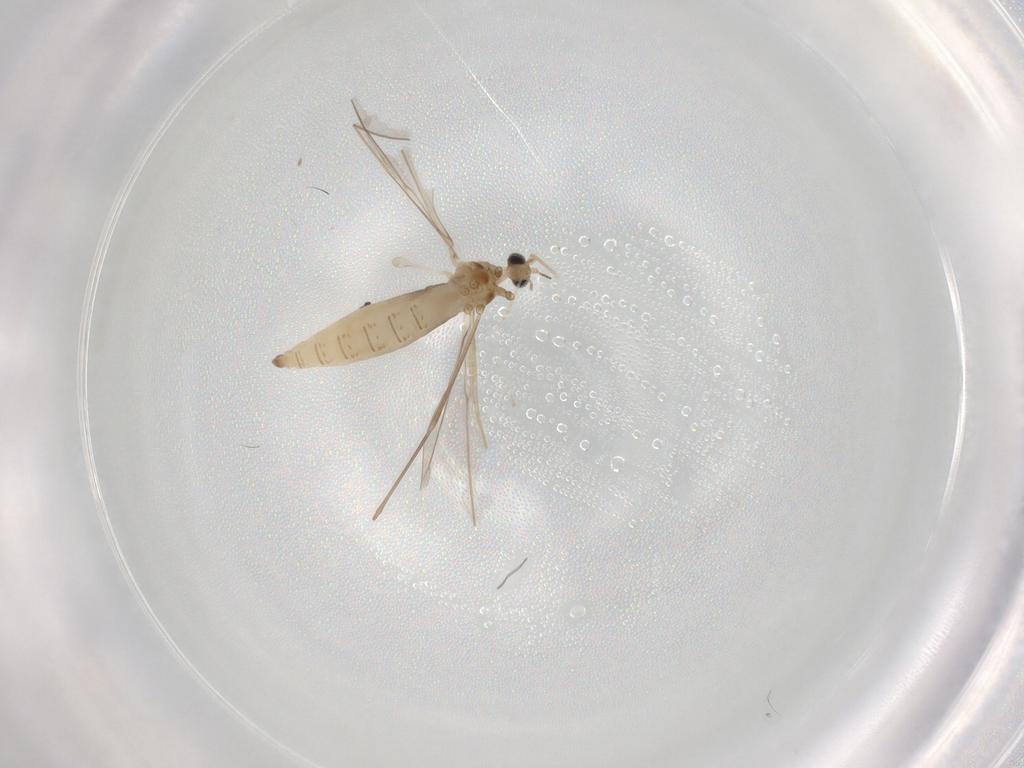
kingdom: Animalia
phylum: Arthropoda
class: Insecta
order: Diptera
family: Cecidomyiidae
